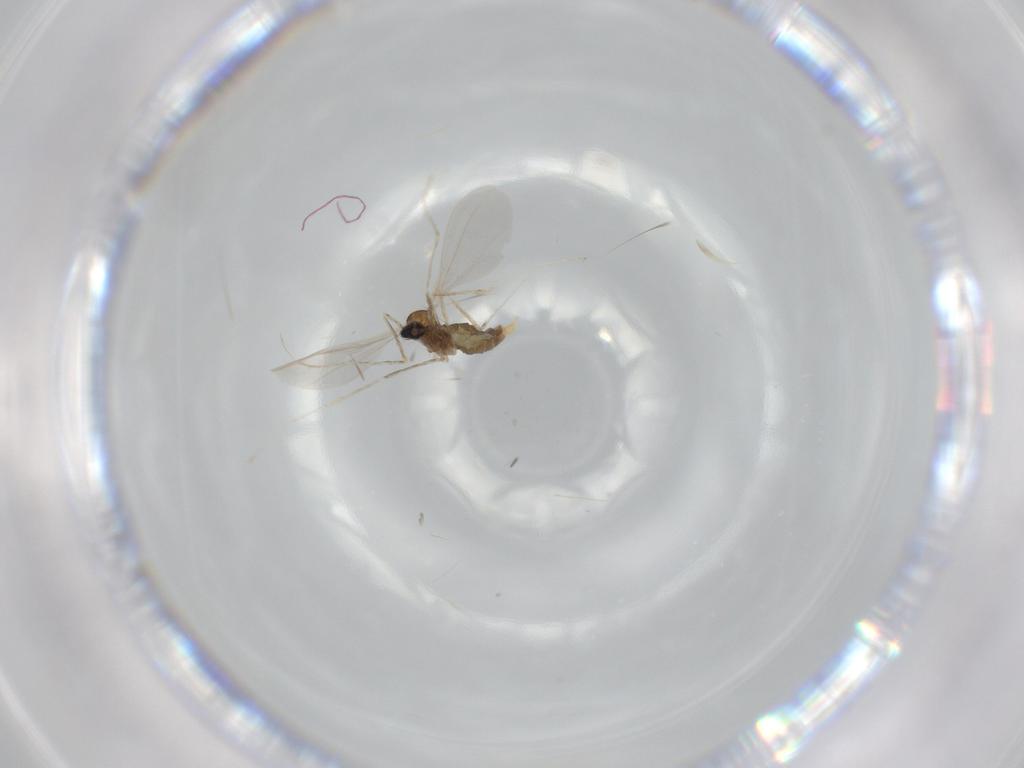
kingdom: Animalia
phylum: Arthropoda
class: Insecta
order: Diptera
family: Cecidomyiidae
